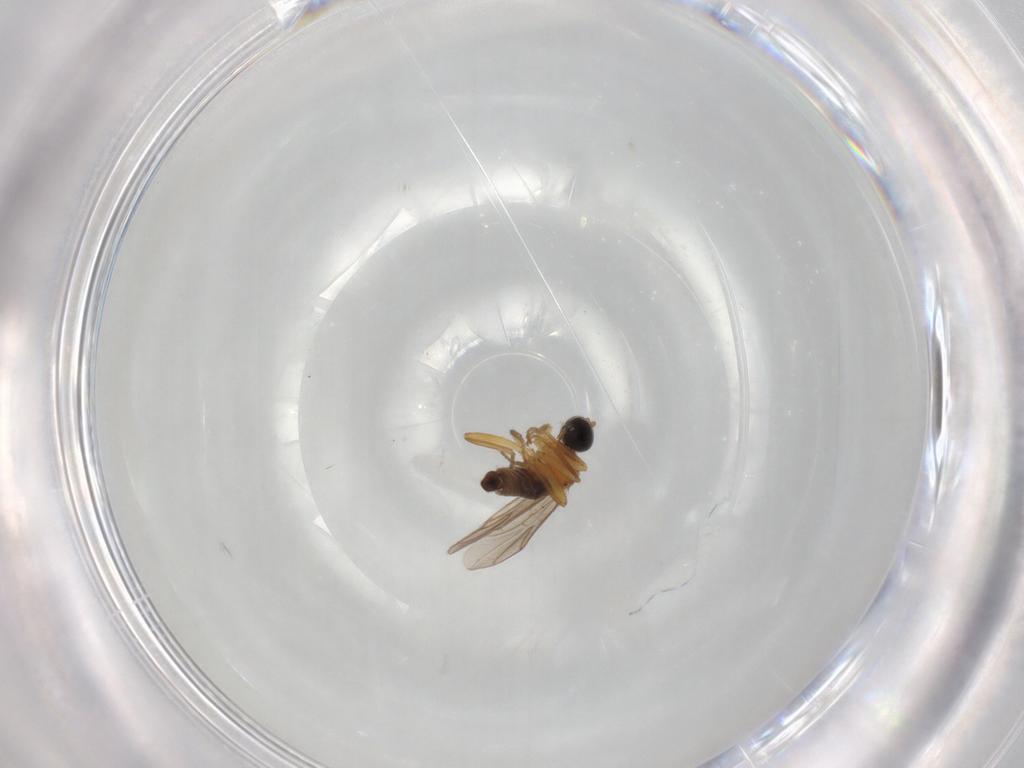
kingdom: Animalia
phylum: Arthropoda
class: Insecta
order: Diptera
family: Hybotidae
